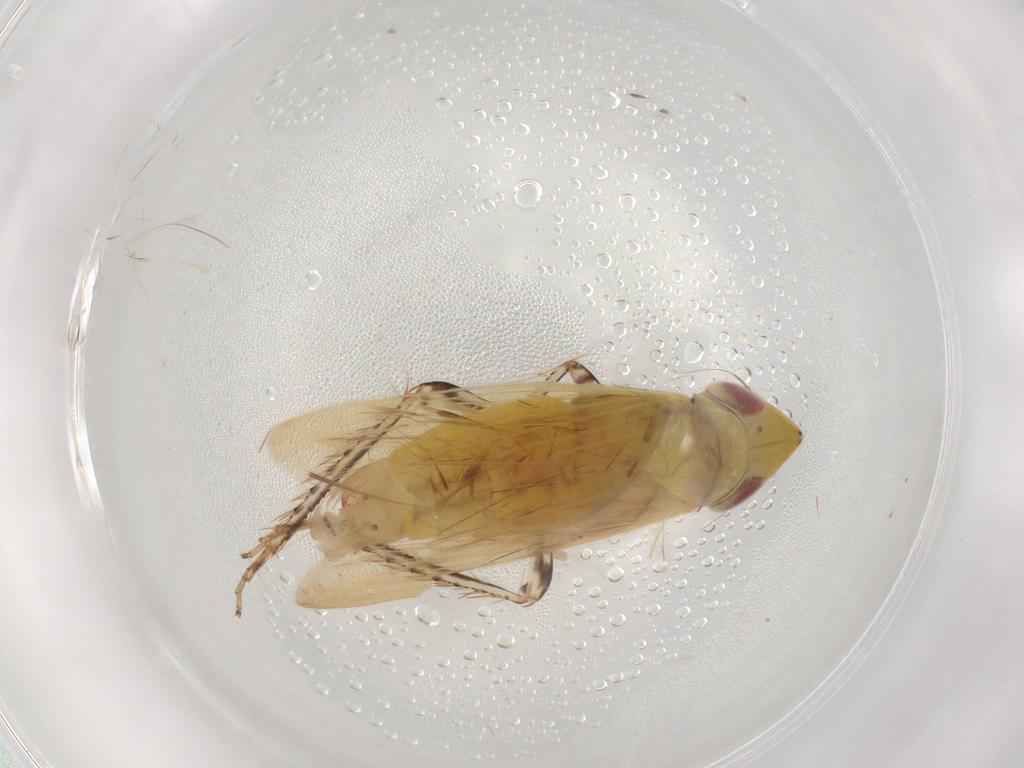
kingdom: Animalia
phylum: Arthropoda
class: Insecta
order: Hemiptera
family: Cicadellidae
